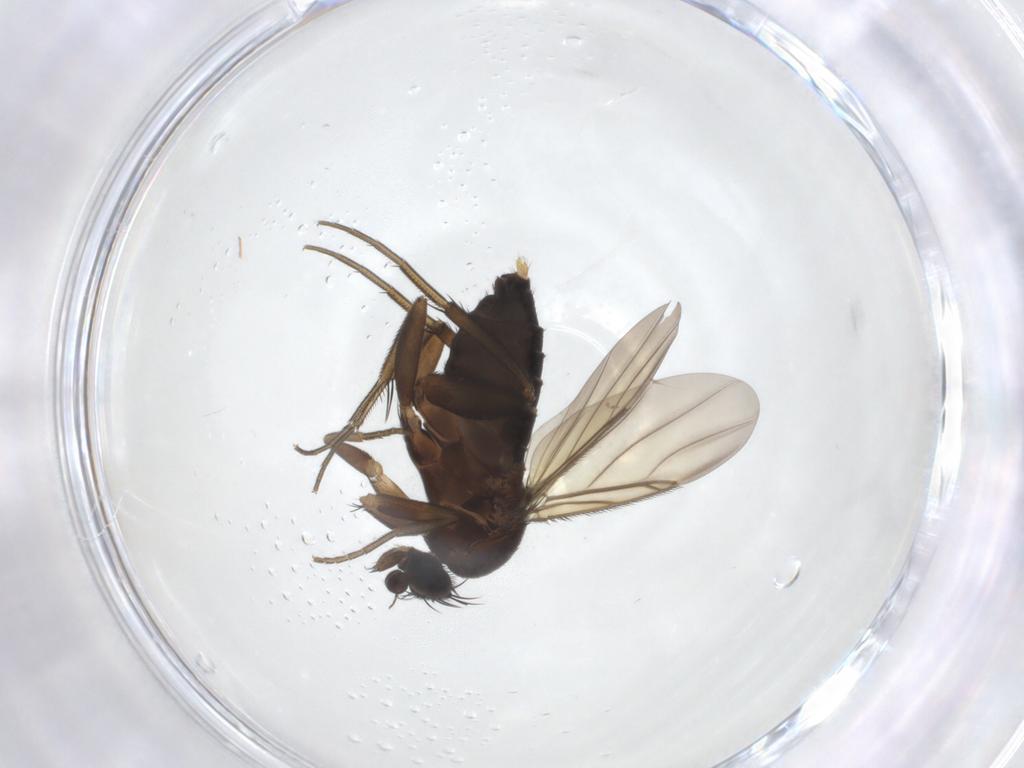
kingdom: Animalia
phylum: Arthropoda
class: Insecta
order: Diptera
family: Phoridae
